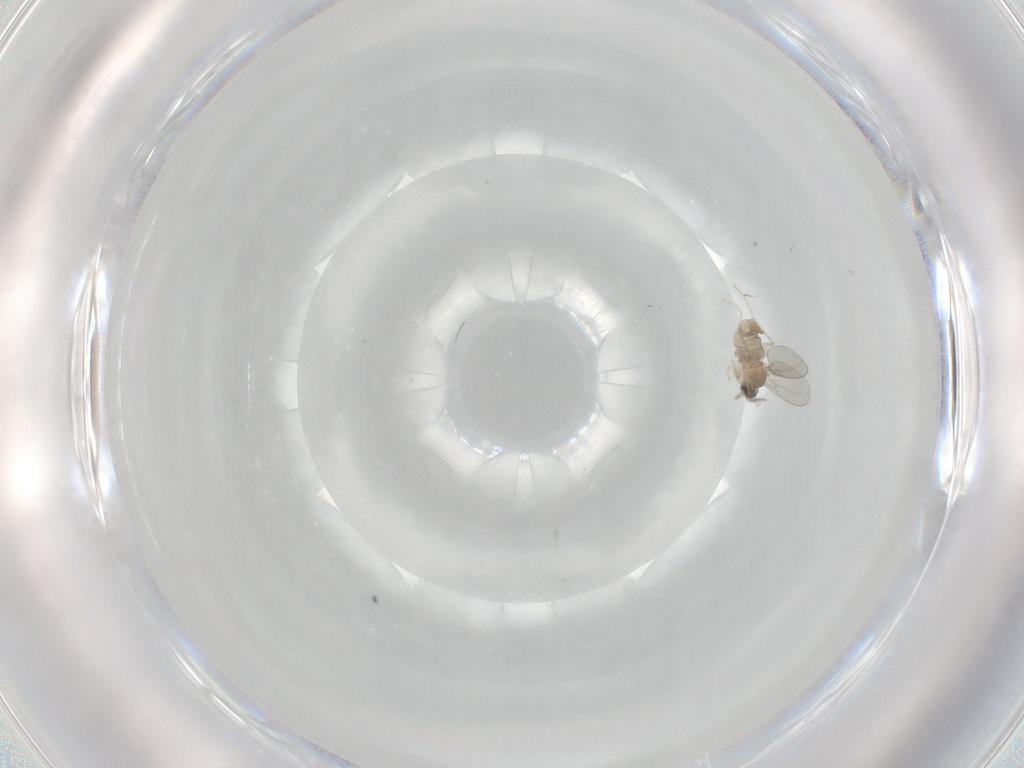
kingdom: Animalia
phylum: Arthropoda
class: Insecta
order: Diptera
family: Cecidomyiidae
